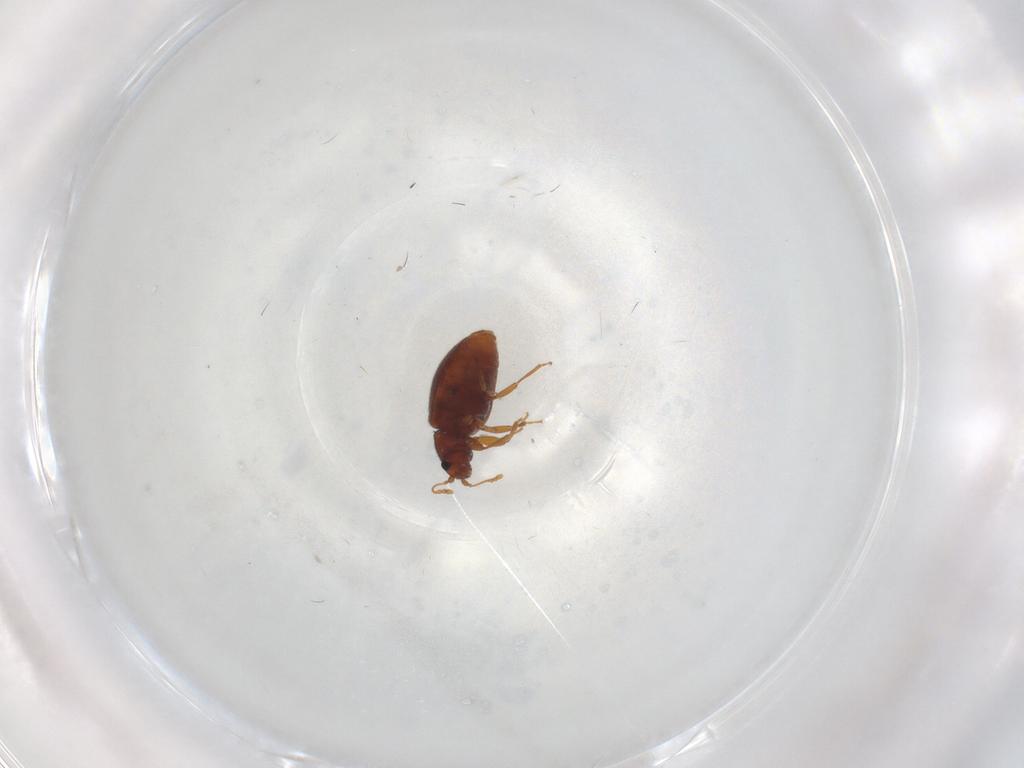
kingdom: Animalia
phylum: Arthropoda
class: Insecta
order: Coleoptera
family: Latridiidae
